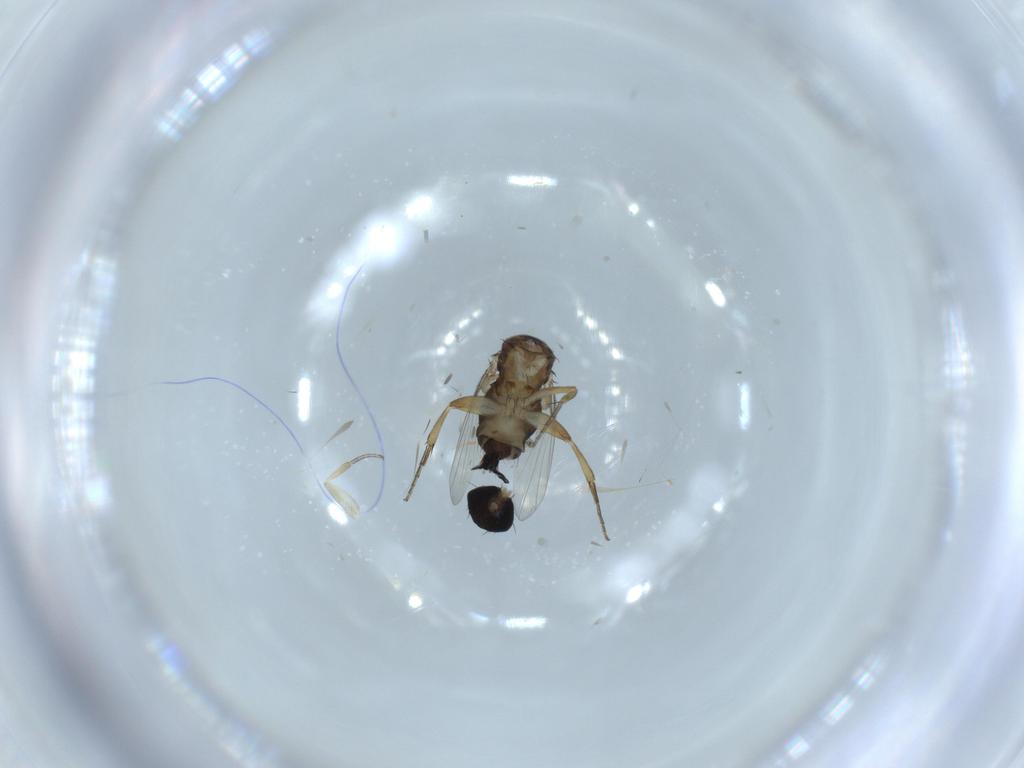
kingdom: Animalia
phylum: Arthropoda
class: Insecta
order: Diptera
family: Phoridae
